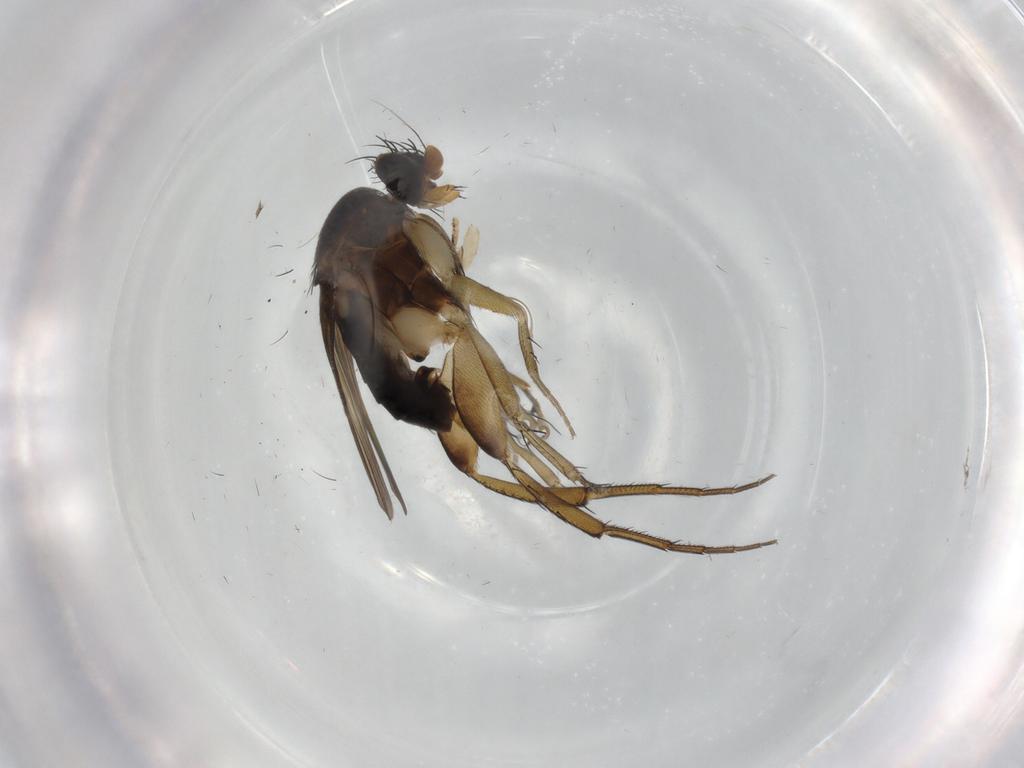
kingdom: Animalia
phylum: Arthropoda
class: Insecta
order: Diptera
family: Phoridae
